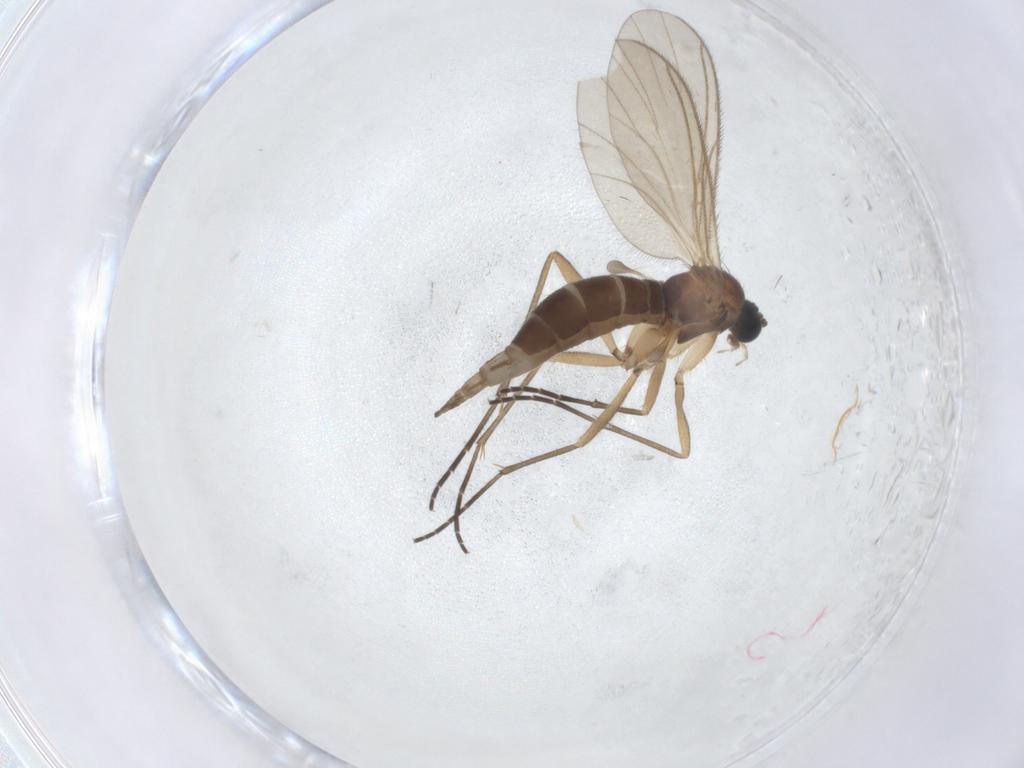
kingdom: Animalia
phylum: Arthropoda
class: Insecta
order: Diptera
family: Sciaridae
